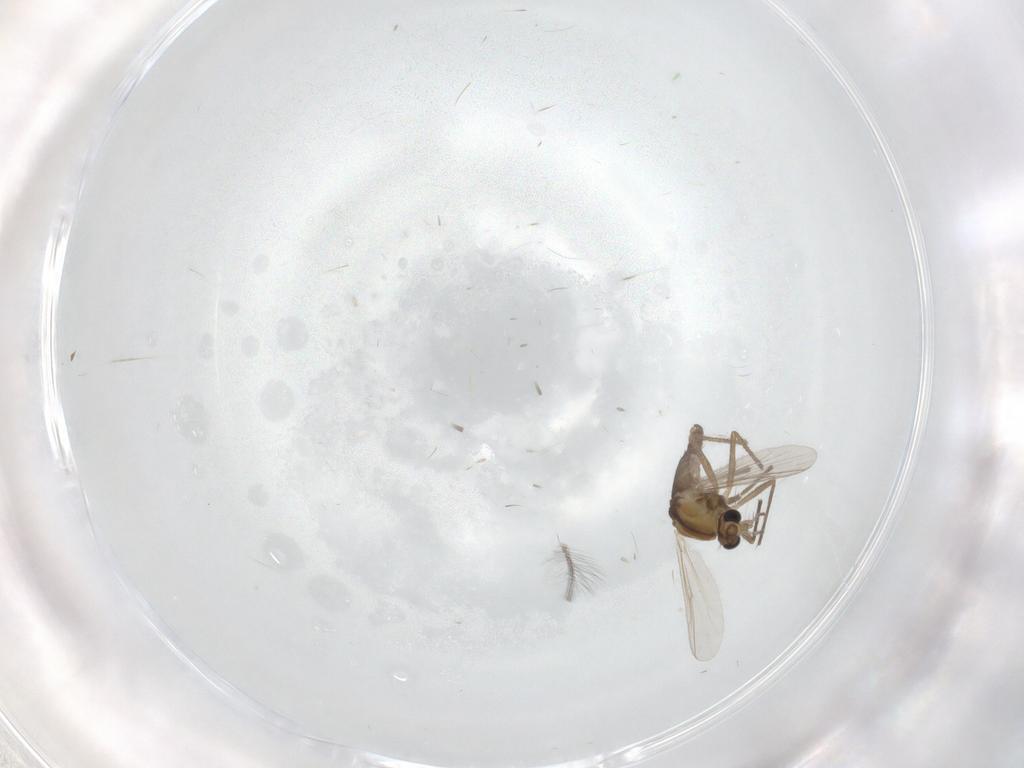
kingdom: Animalia
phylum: Arthropoda
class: Insecta
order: Diptera
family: Chironomidae
